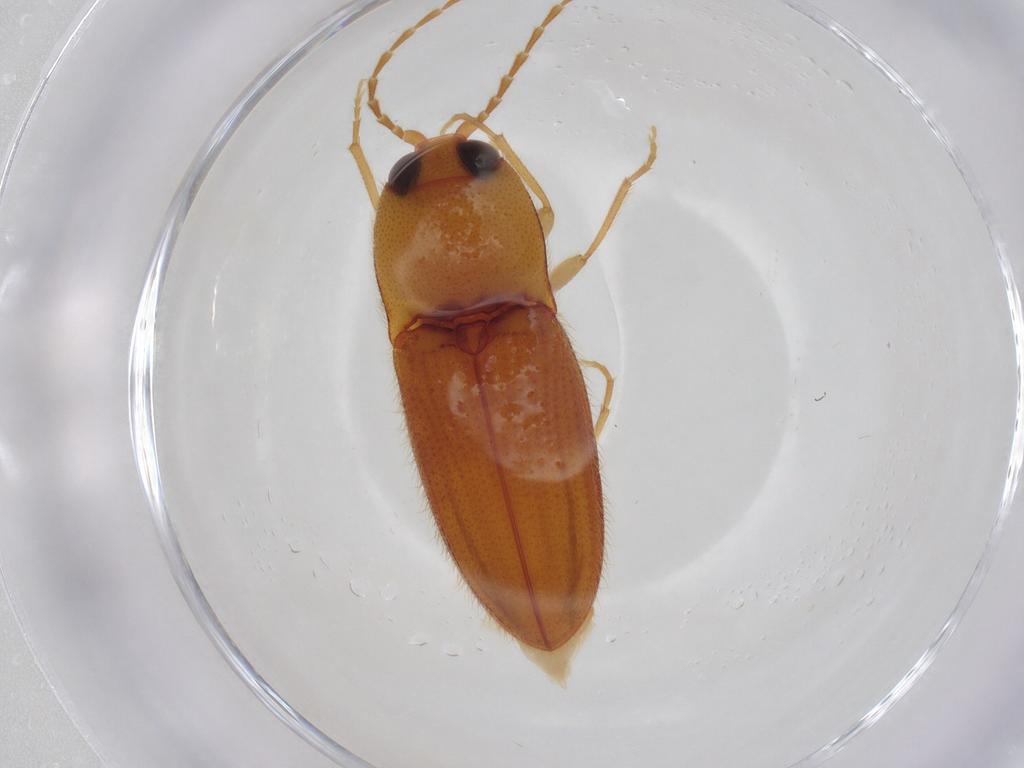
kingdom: Animalia
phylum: Arthropoda
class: Insecta
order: Coleoptera
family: Elateridae
